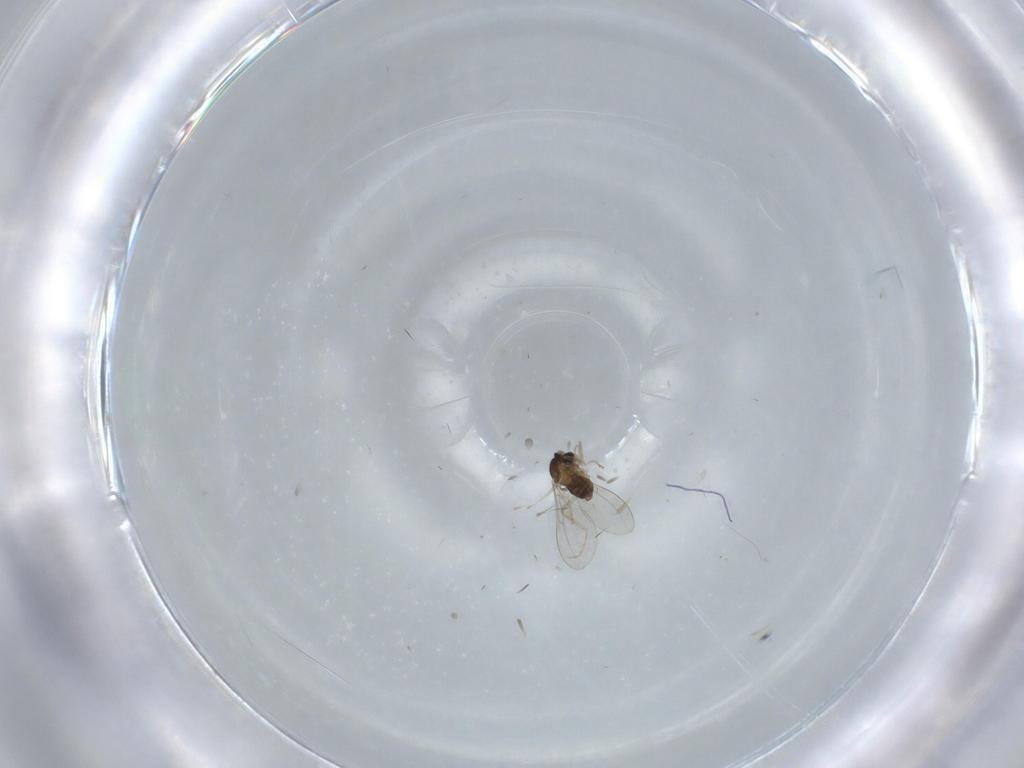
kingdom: Animalia
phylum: Arthropoda
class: Insecta
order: Diptera
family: Cecidomyiidae
